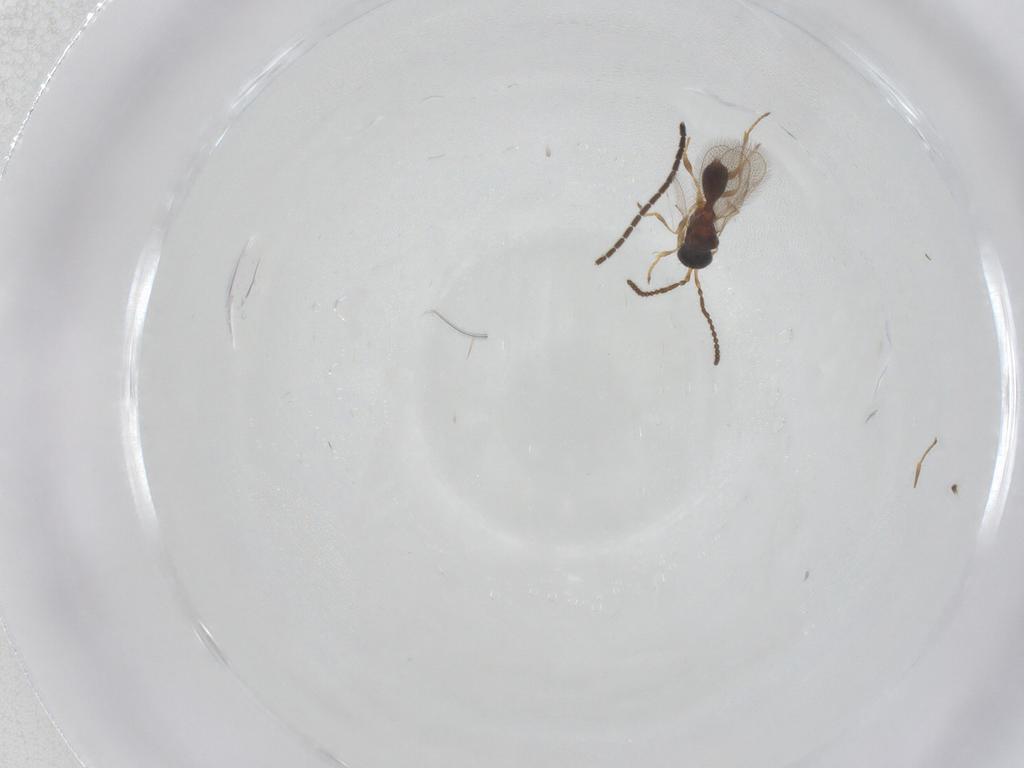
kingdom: Animalia
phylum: Arthropoda
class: Insecta
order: Hymenoptera
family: Diapriidae
